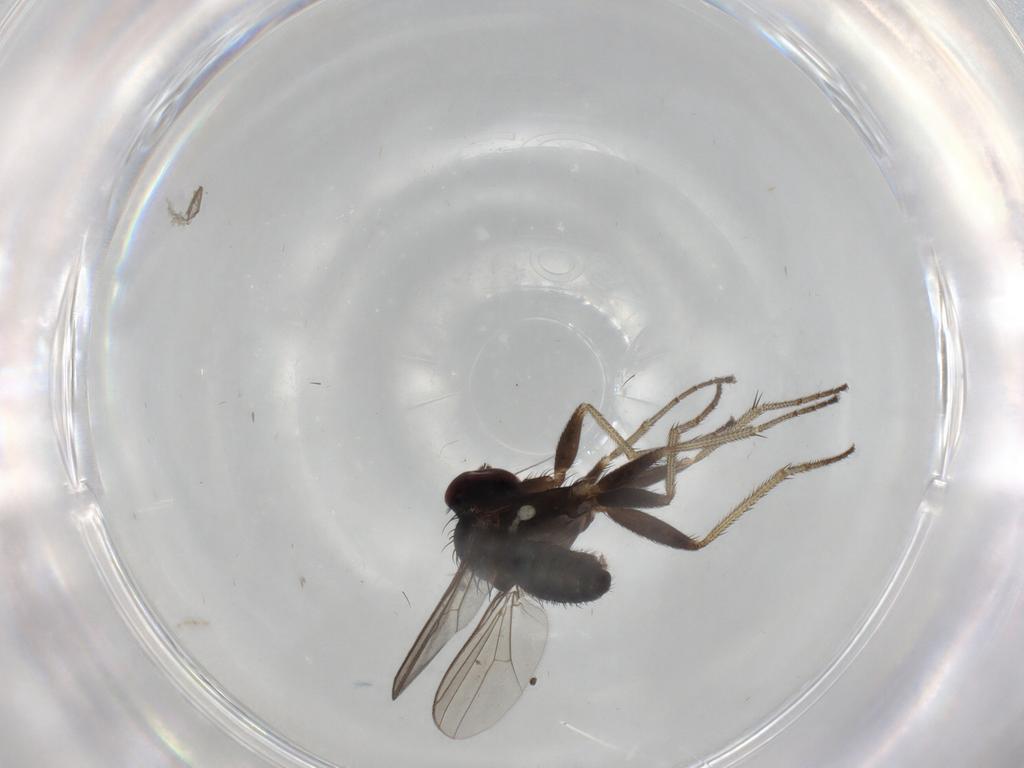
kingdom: Animalia
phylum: Arthropoda
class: Insecta
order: Diptera
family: Dolichopodidae
